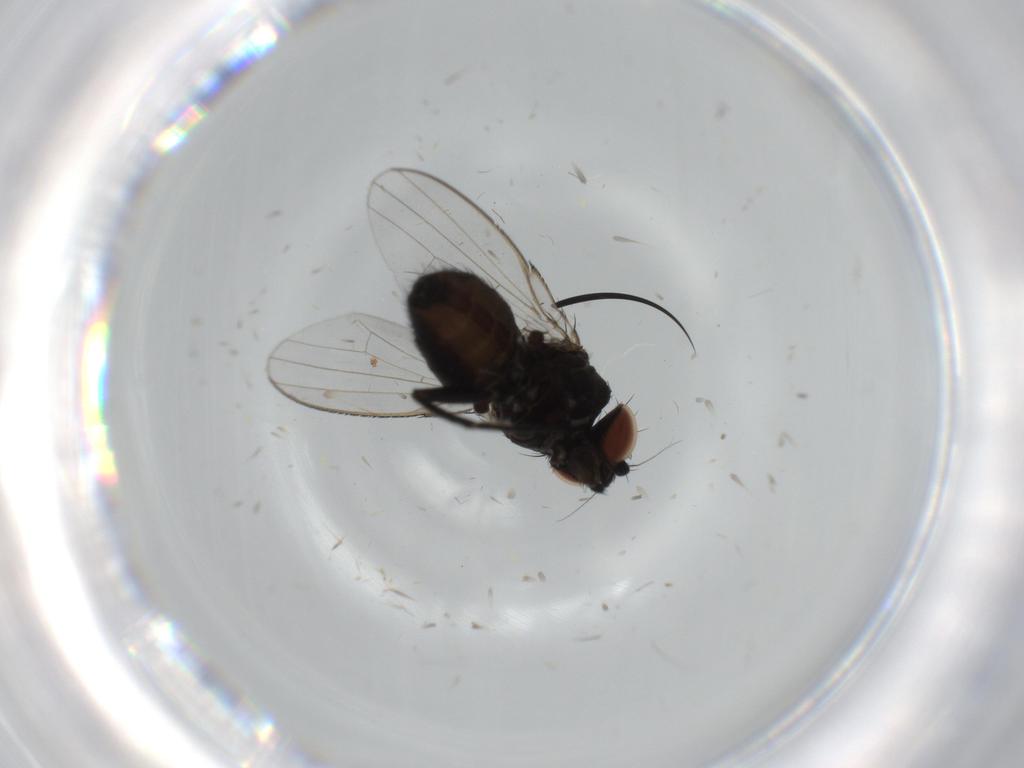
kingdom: Animalia
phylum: Arthropoda
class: Insecta
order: Diptera
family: Milichiidae
